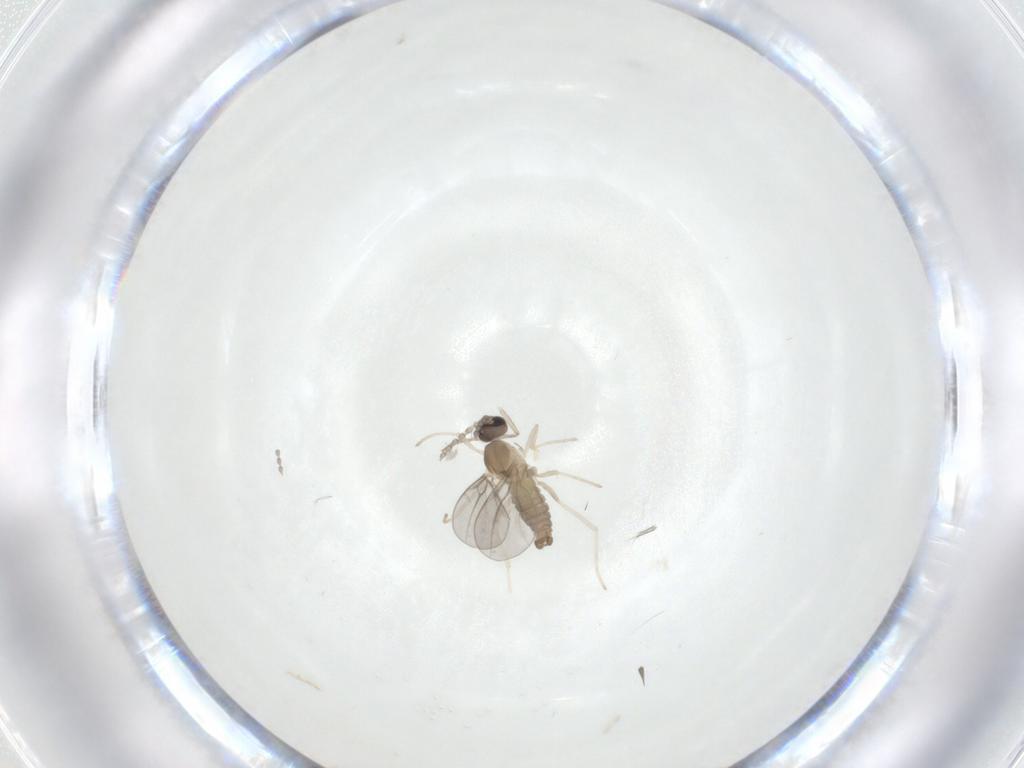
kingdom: Animalia
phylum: Arthropoda
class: Insecta
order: Diptera
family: Cecidomyiidae
